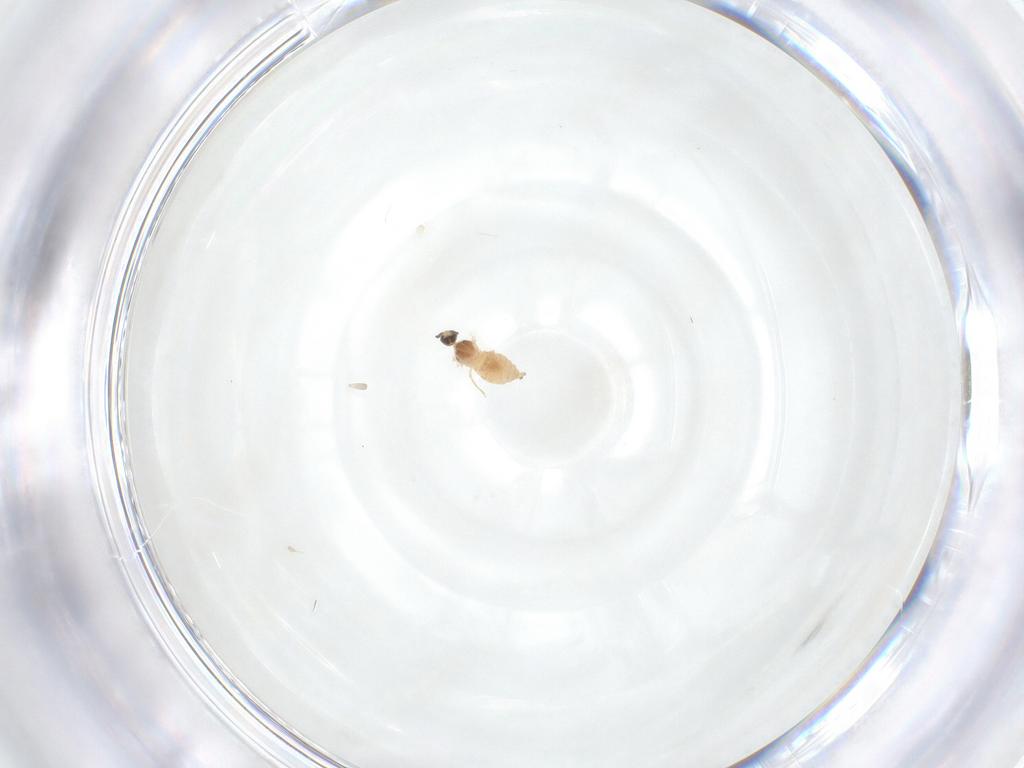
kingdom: Animalia
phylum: Arthropoda
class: Insecta
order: Diptera
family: Cecidomyiidae
